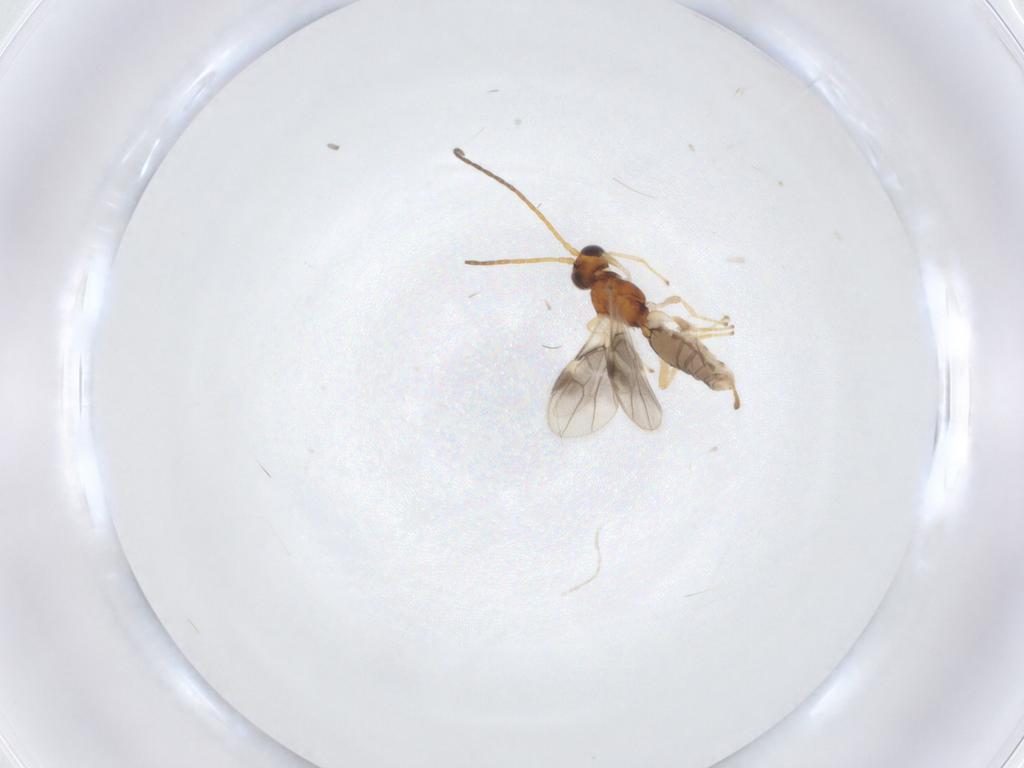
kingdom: Animalia
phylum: Arthropoda
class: Insecta
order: Hymenoptera
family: Braconidae
